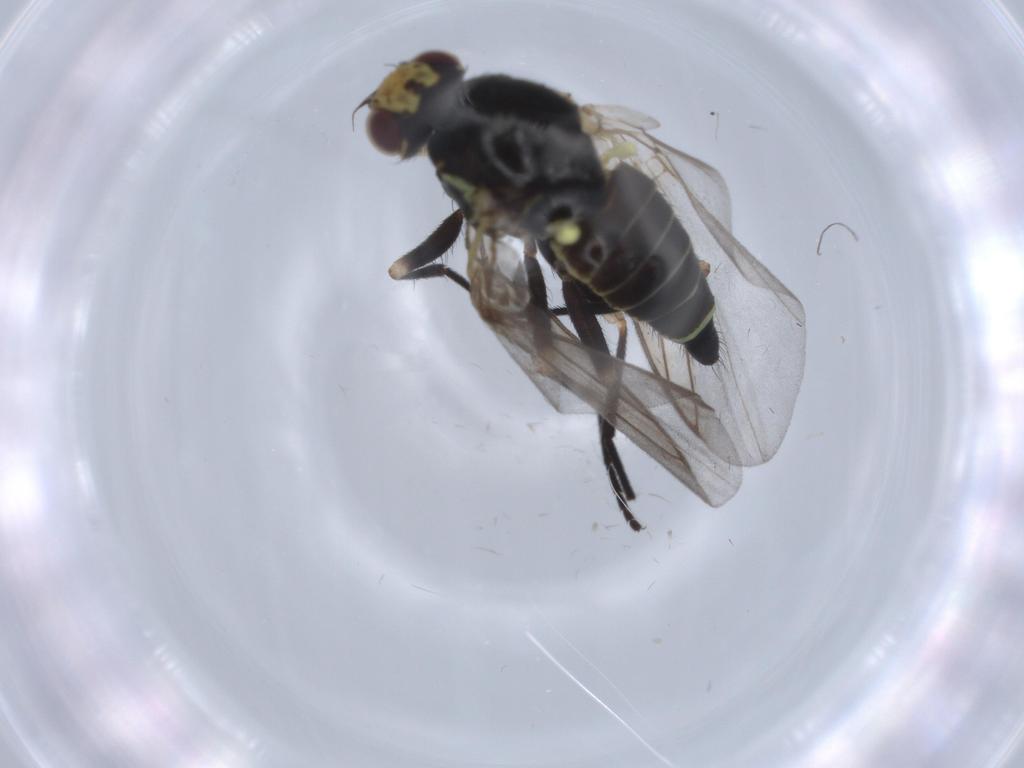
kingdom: Animalia
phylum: Arthropoda
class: Insecta
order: Diptera
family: Agromyzidae
